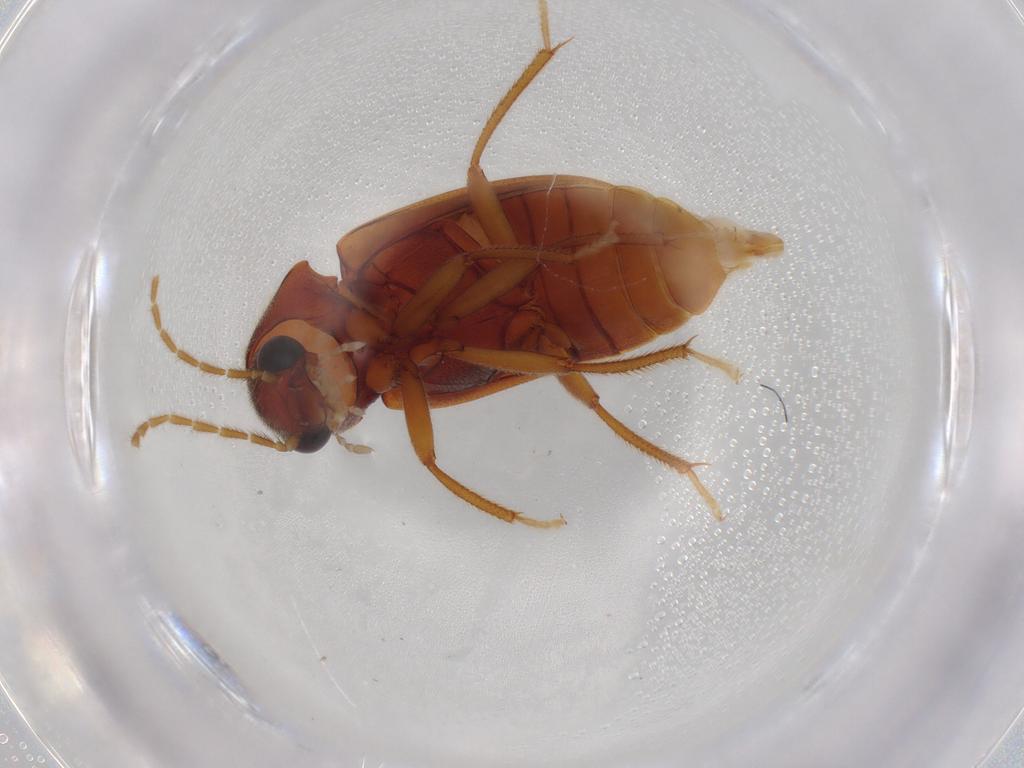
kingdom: Animalia
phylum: Arthropoda
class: Insecta
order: Coleoptera
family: Ptilodactylidae
